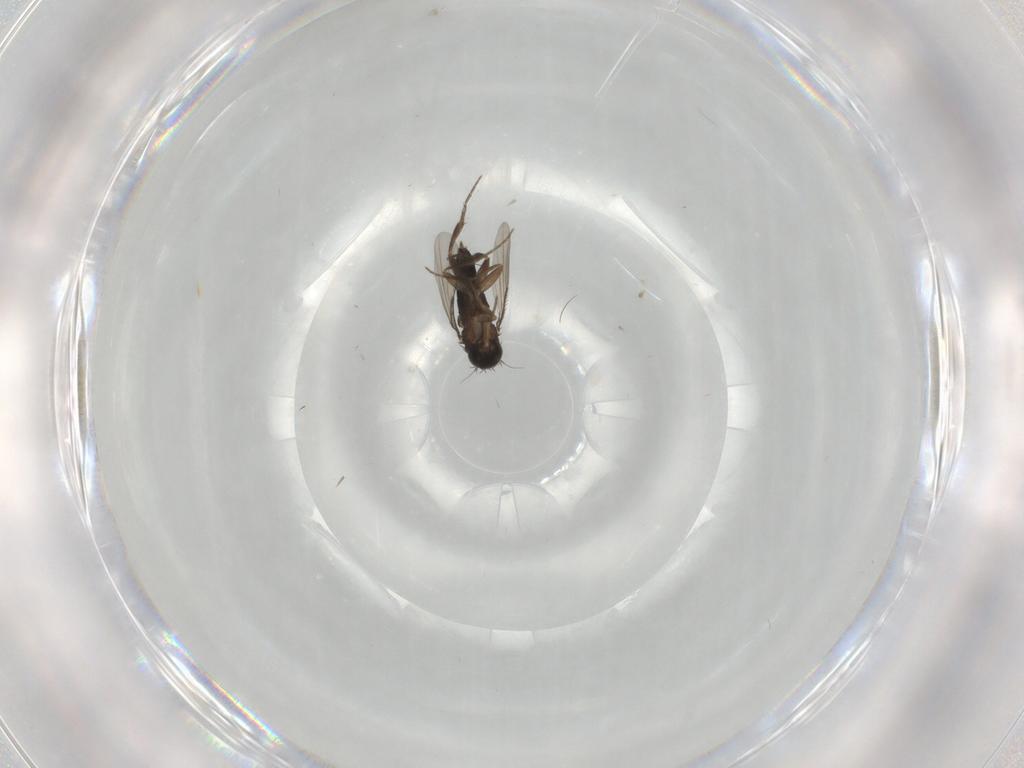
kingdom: Animalia
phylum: Arthropoda
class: Insecta
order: Diptera
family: Phoridae
